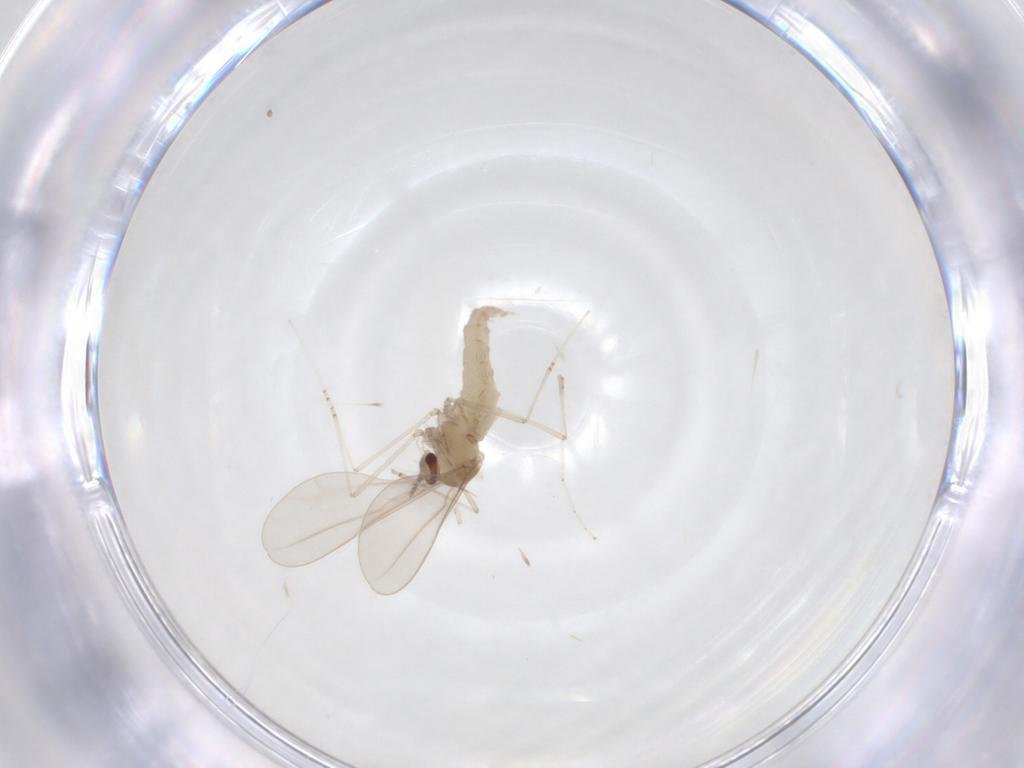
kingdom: Animalia
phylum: Arthropoda
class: Insecta
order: Diptera
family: Cecidomyiidae
